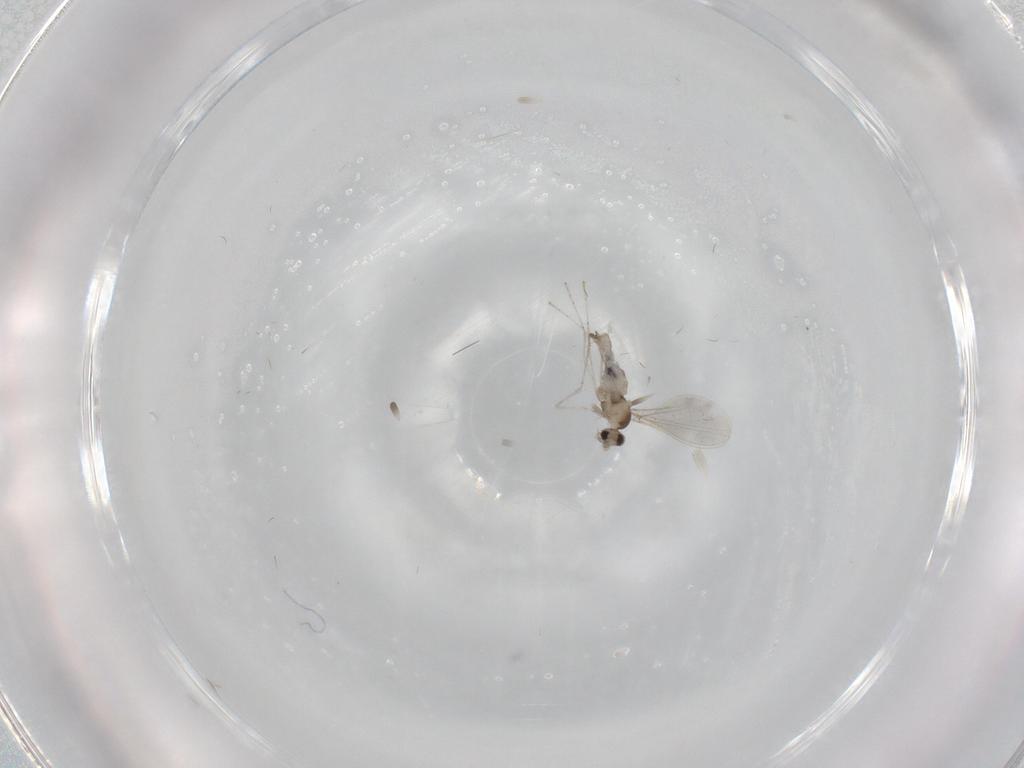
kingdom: Animalia
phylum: Arthropoda
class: Insecta
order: Diptera
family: Cecidomyiidae
